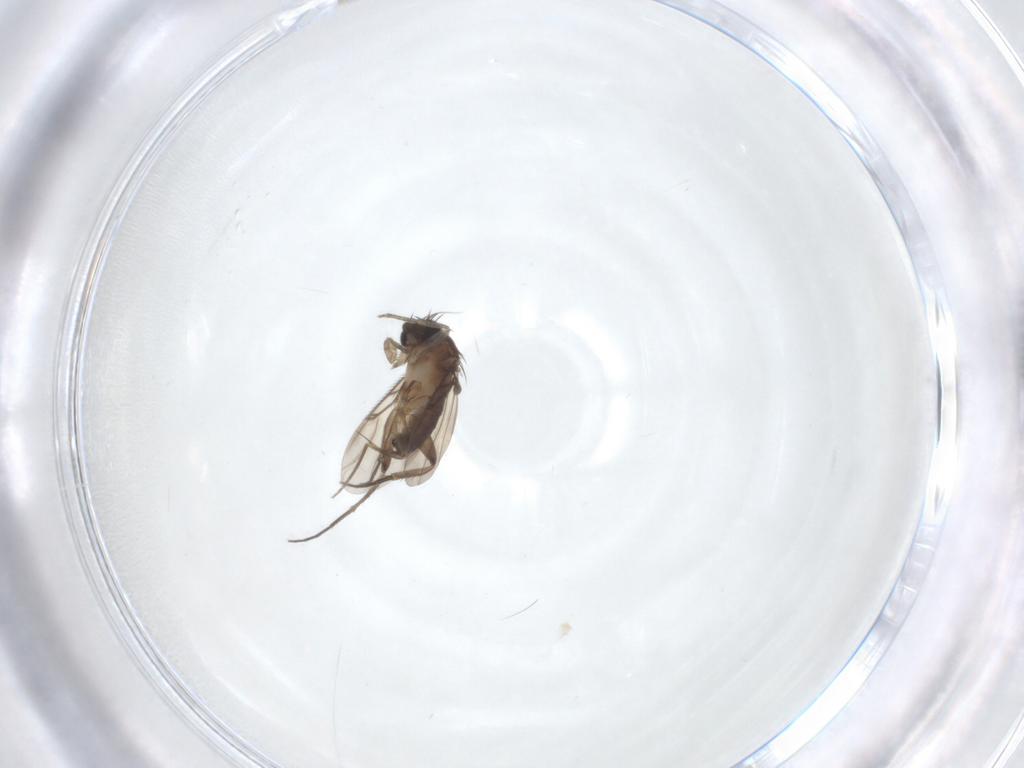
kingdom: Animalia
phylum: Arthropoda
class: Insecta
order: Diptera
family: Phoridae
